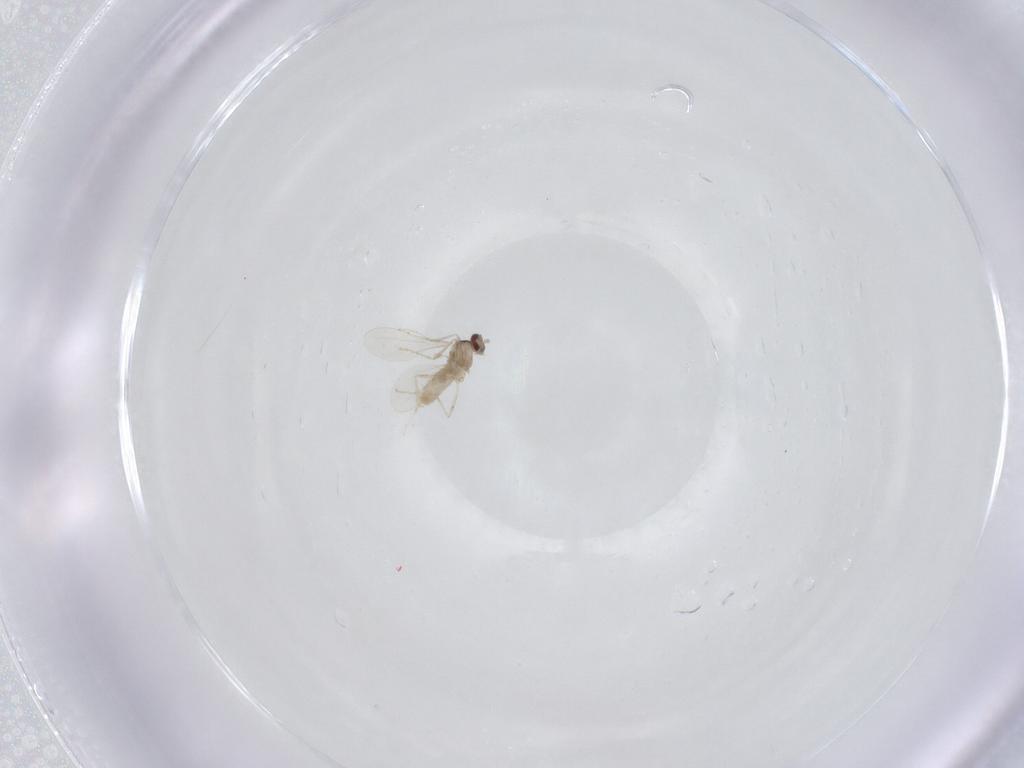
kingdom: Animalia
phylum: Arthropoda
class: Insecta
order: Diptera
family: Cecidomyiidae
